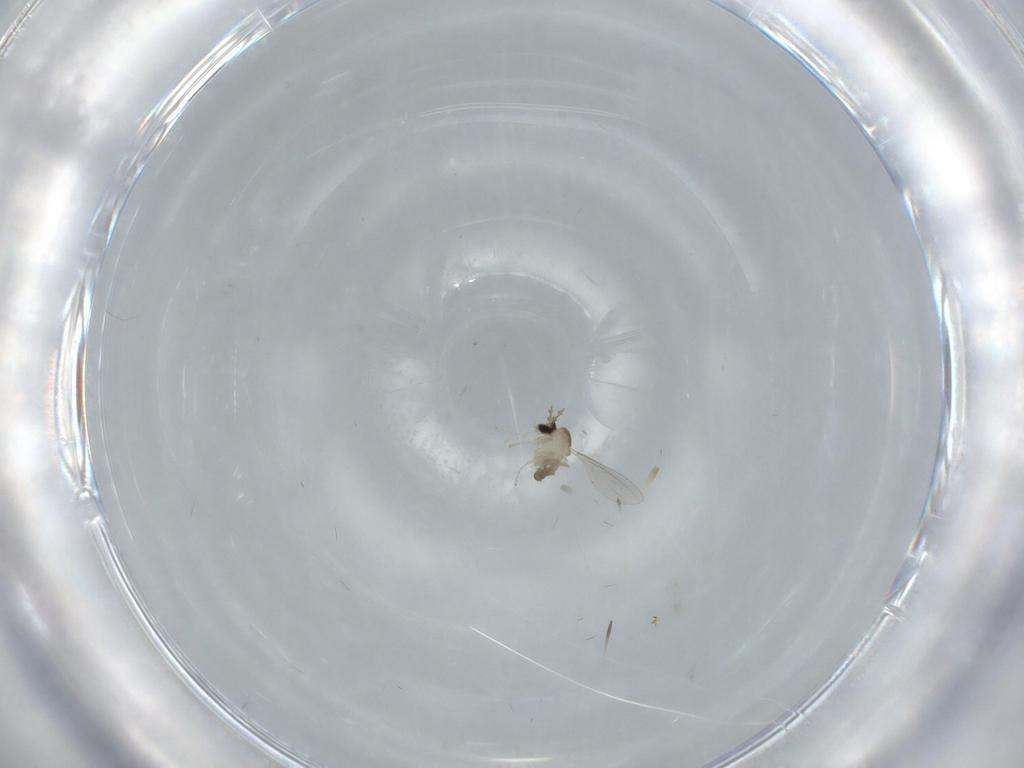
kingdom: Animalia
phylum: Arthropoda
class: Insecta
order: Diptera
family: Cecidomyiidae
